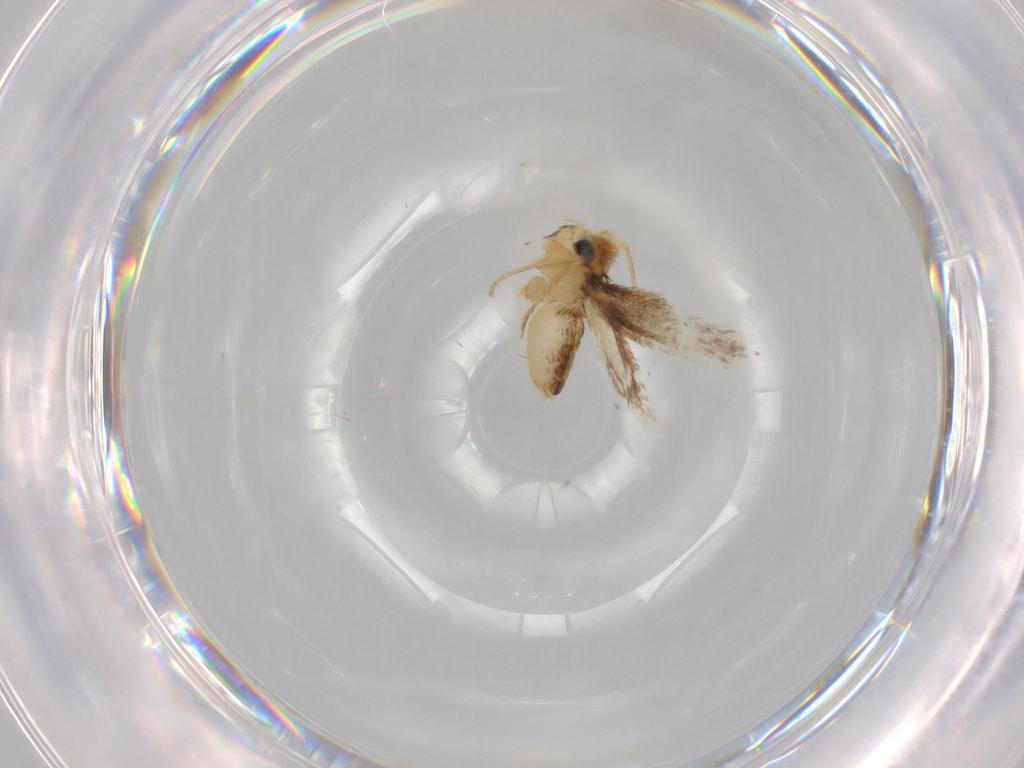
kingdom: Animalia
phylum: Arthropoda
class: Insecta
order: Lepidoptera
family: Nepticulidae
